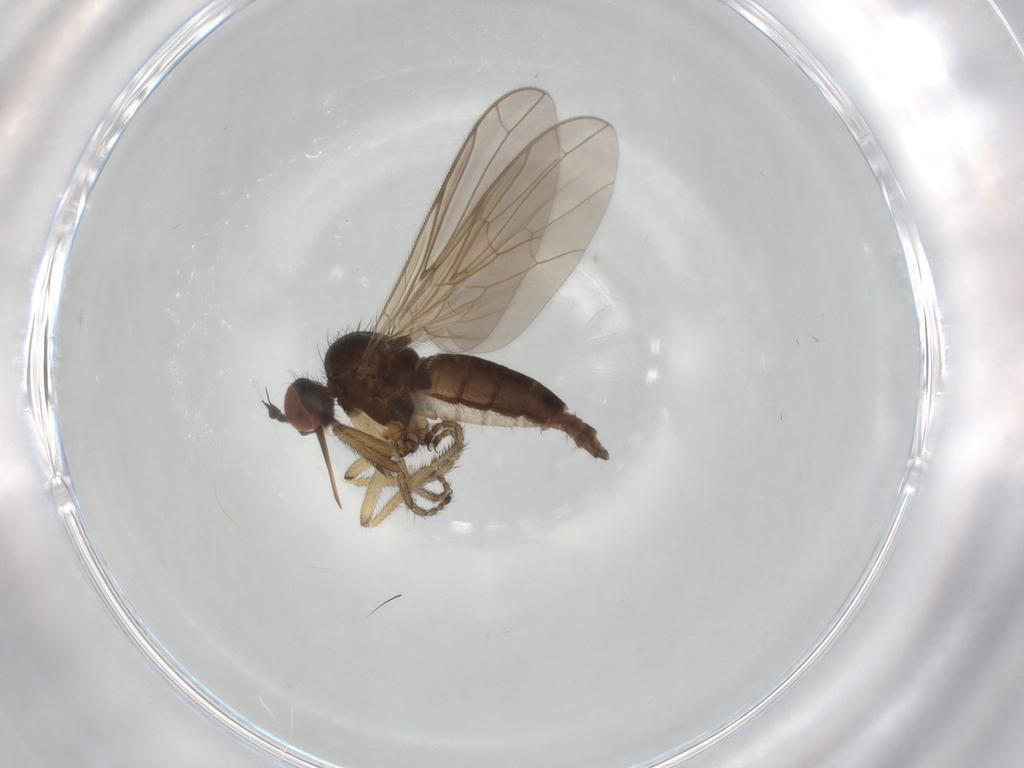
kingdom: Animalia
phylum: Arthropoda
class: Insecta
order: Diptera
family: Empididae
